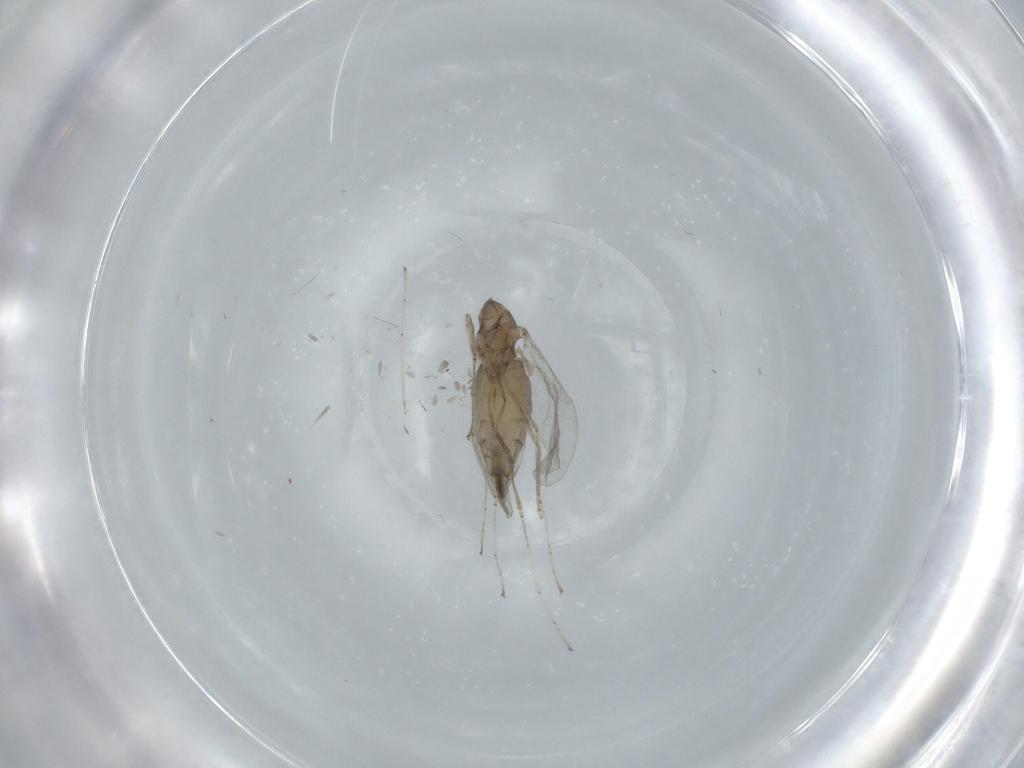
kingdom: Animalia
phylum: Arthropoda
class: Insecta
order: Diptera
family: Cecidomyiidae
